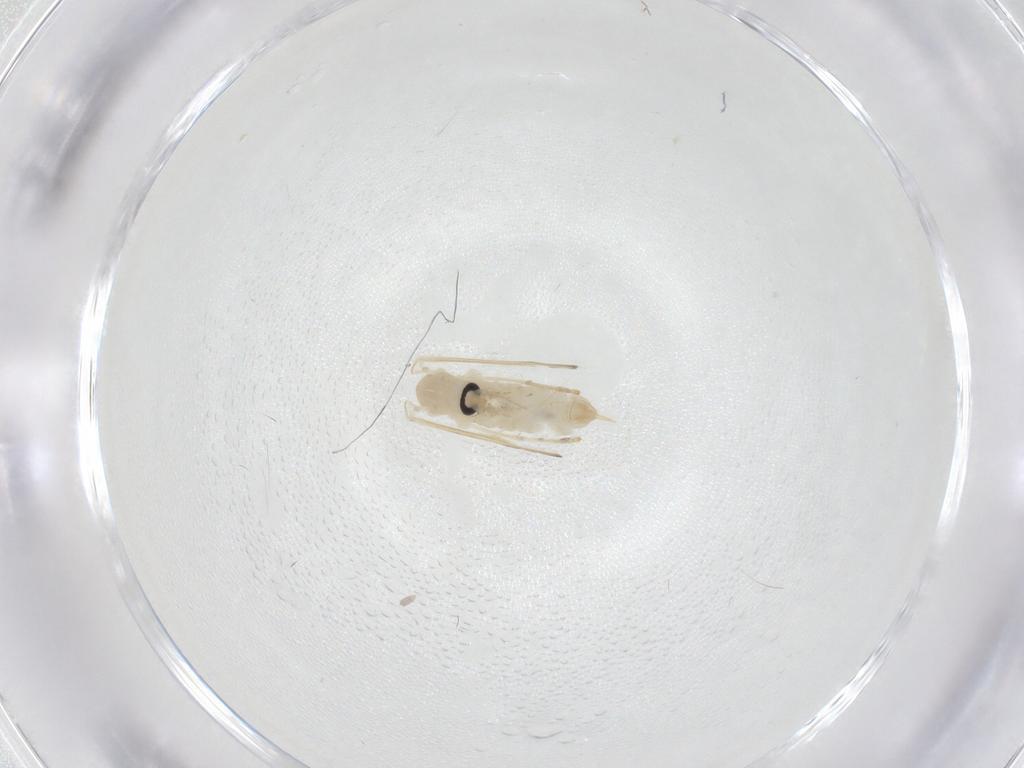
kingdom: Animalia
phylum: Arthropoda
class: Insecta
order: Diptera
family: Psychodidae
